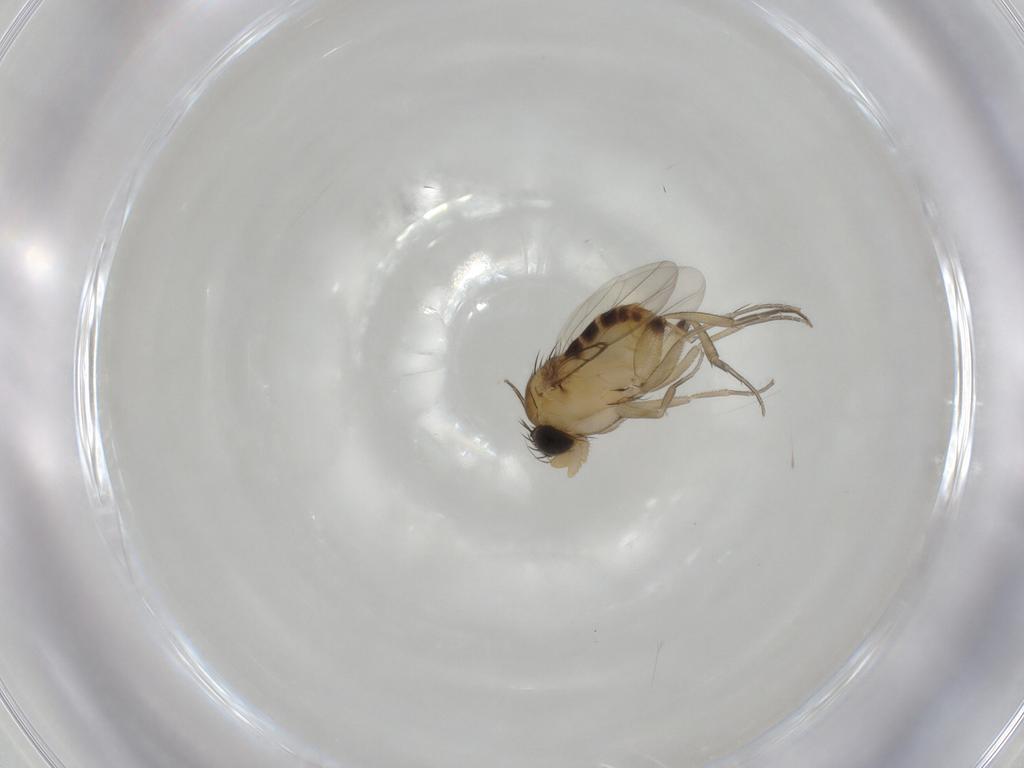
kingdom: Animalia
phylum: Arthropoda
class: Insecta
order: Diptera
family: Phoridae
